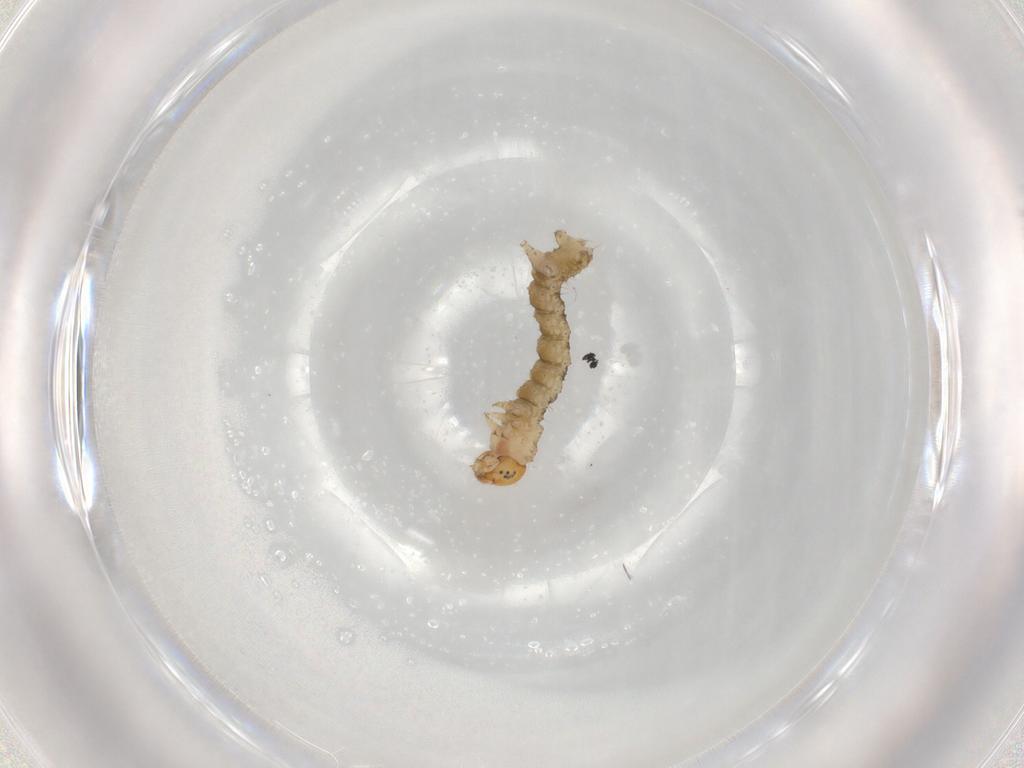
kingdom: Animalia
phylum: Arthropoda
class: Insecta
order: Lepidoptera
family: Geometridae
